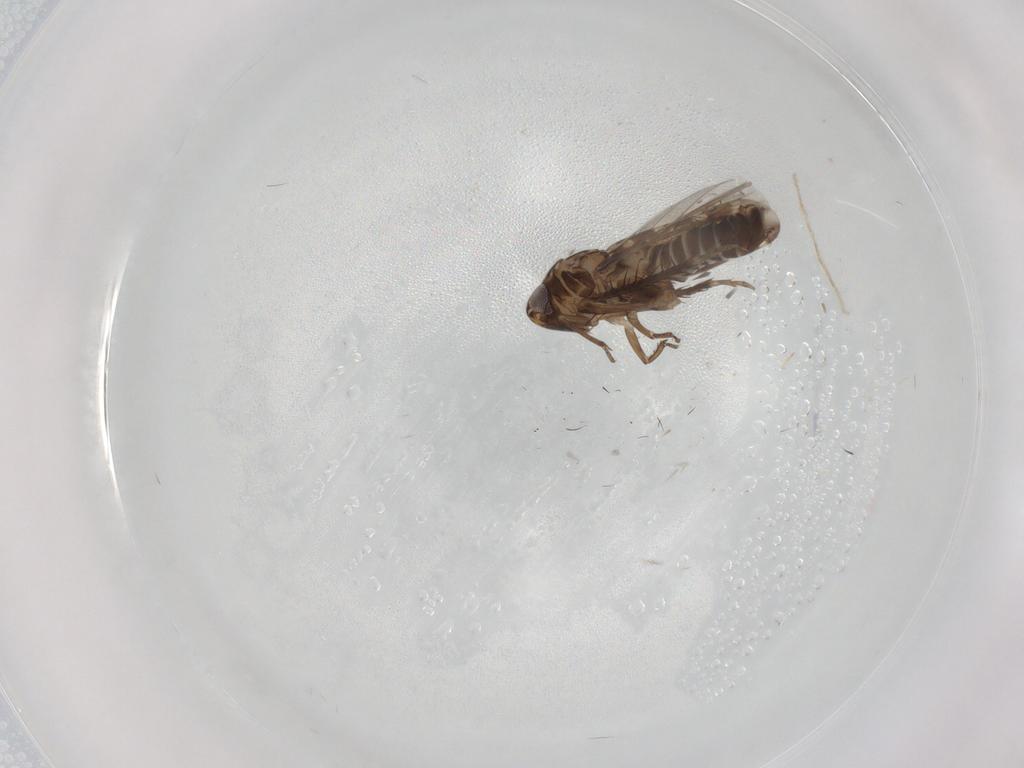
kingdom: Animalia
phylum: Arthropoda
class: Insecta
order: Hemiptera
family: Cicadellidae
